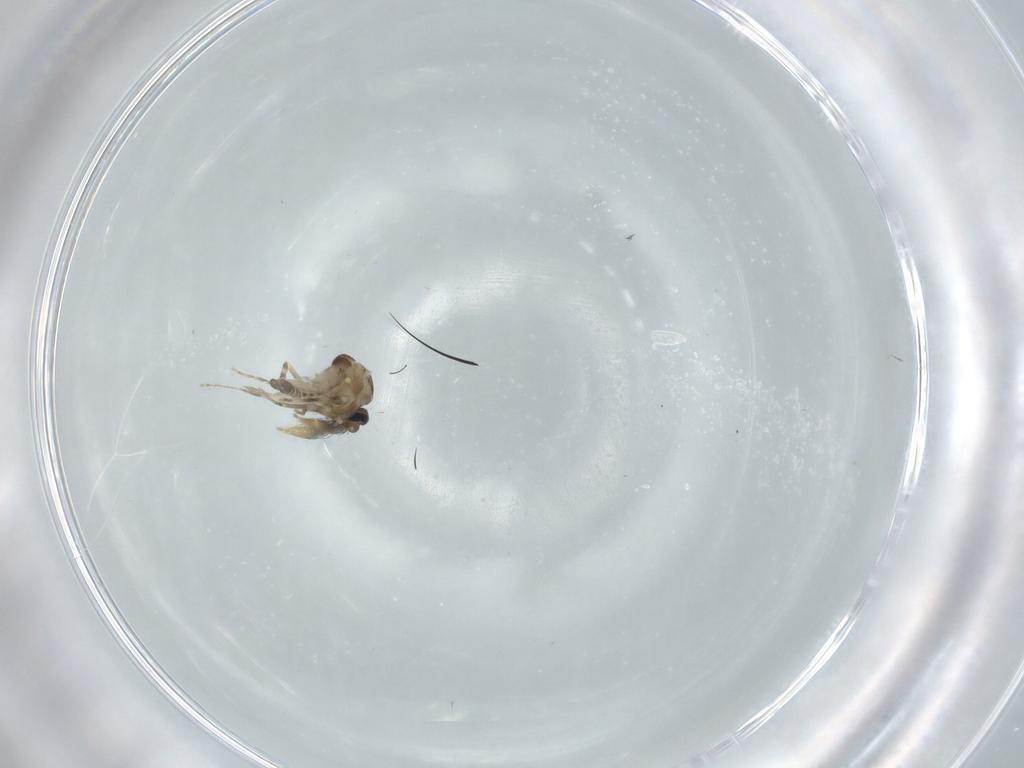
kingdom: Animalia
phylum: Arthropoda
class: Insecta
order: Diptera
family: Ceratopogonidae
